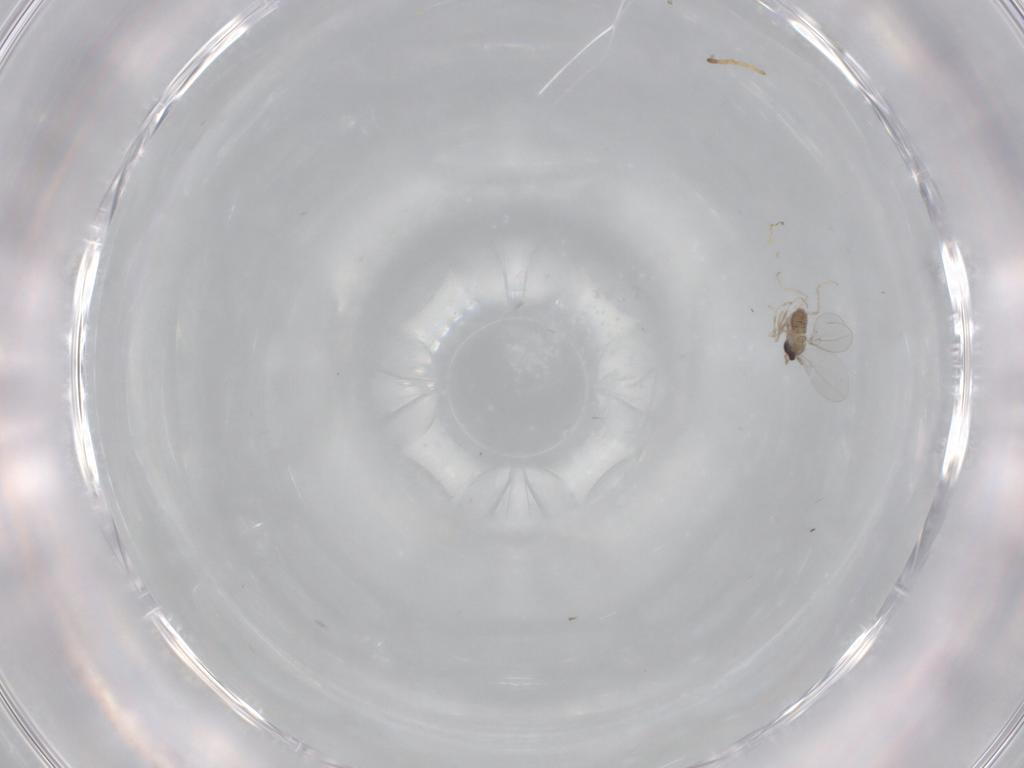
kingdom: Animalia
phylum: Arthropoda
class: Insecta
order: Diptera
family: Cecidomyiidae
